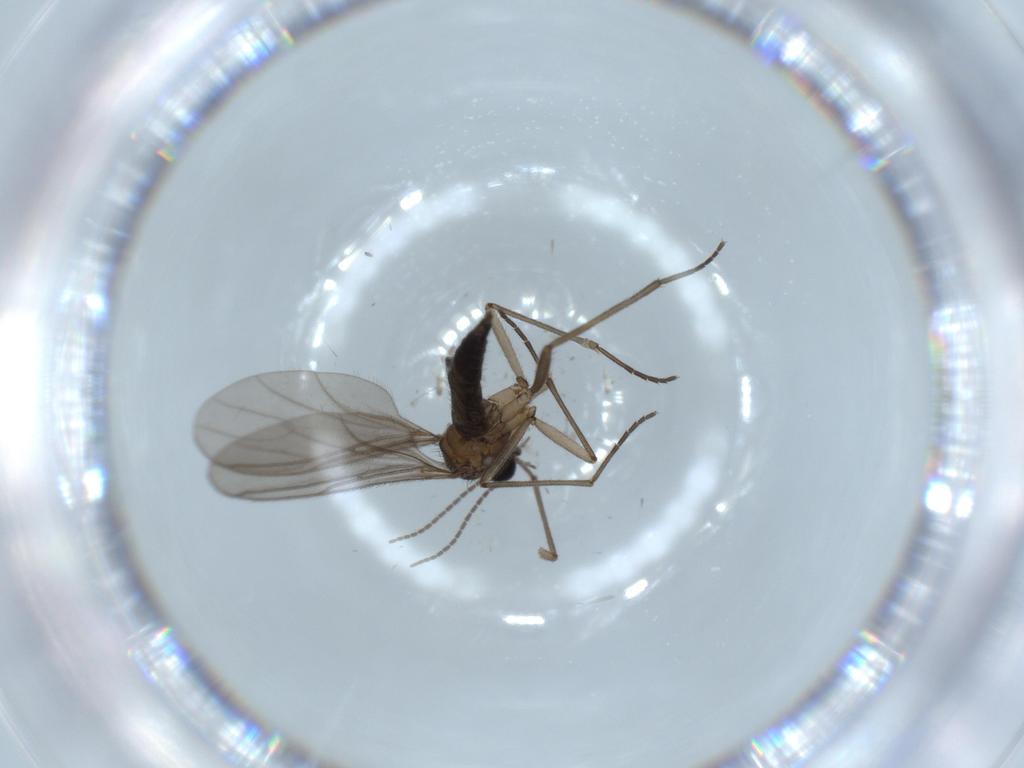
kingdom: Animalia
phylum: Arthropoda
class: Insecta
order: Diptera
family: Sciaridae
